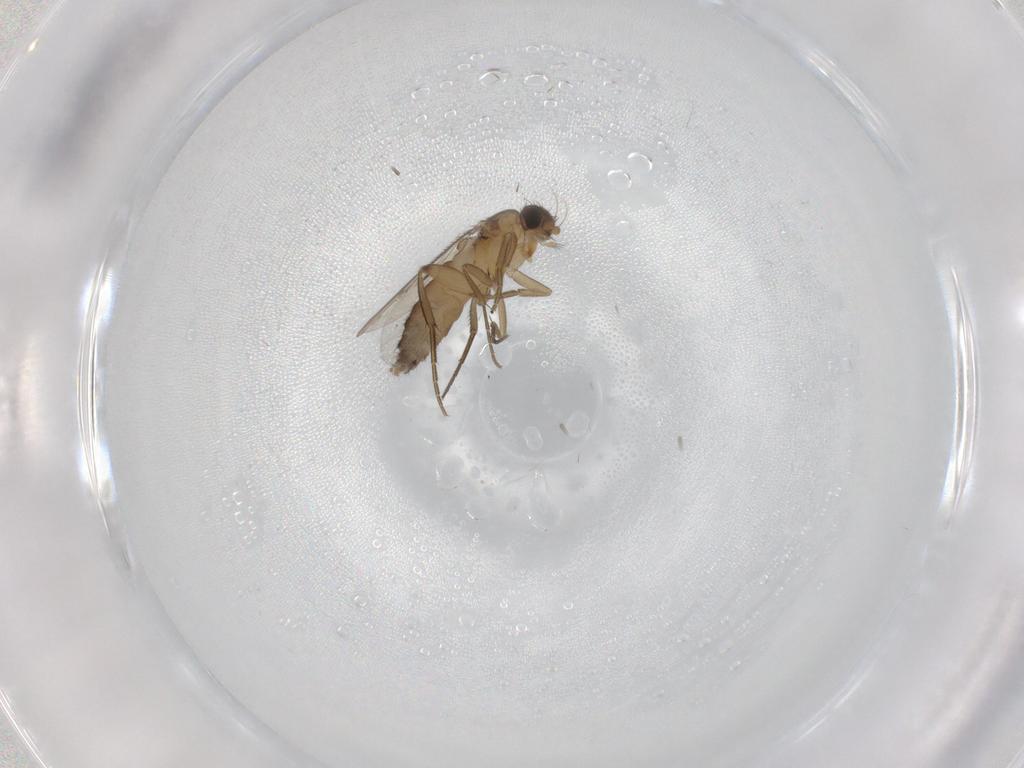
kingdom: Animalia
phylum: Arthropoda
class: Insecta
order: Diptera
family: Phoridae
